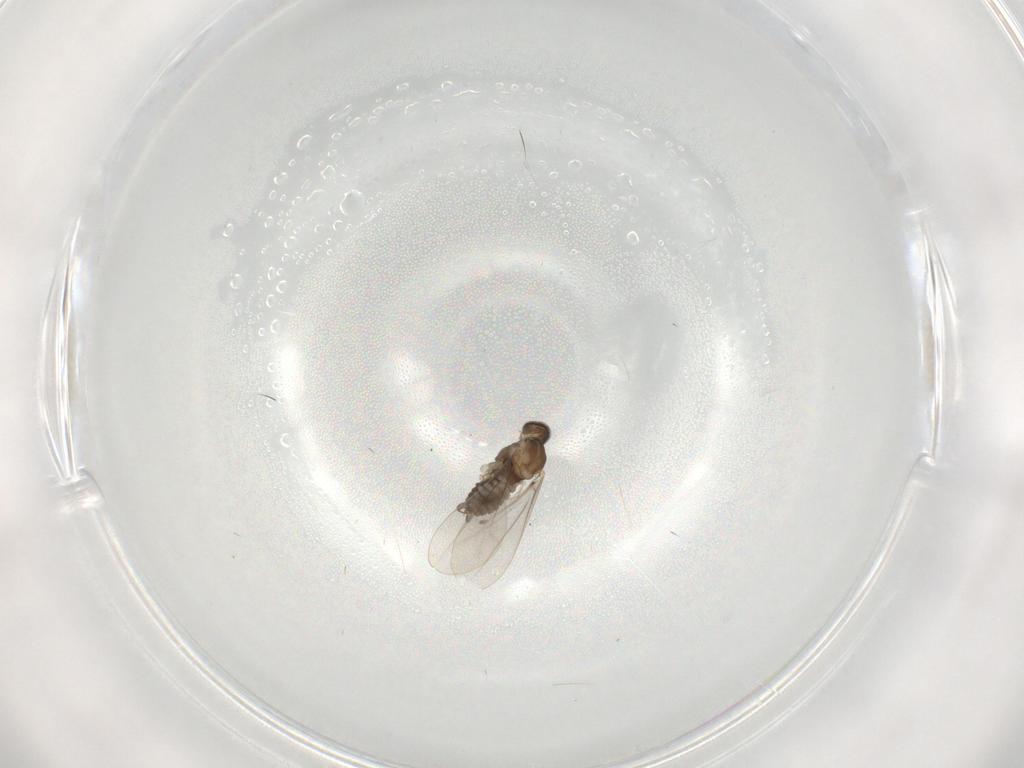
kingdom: Animalia
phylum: Arthropoda
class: Insecta
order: Diptera
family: Cecidomyiidae
